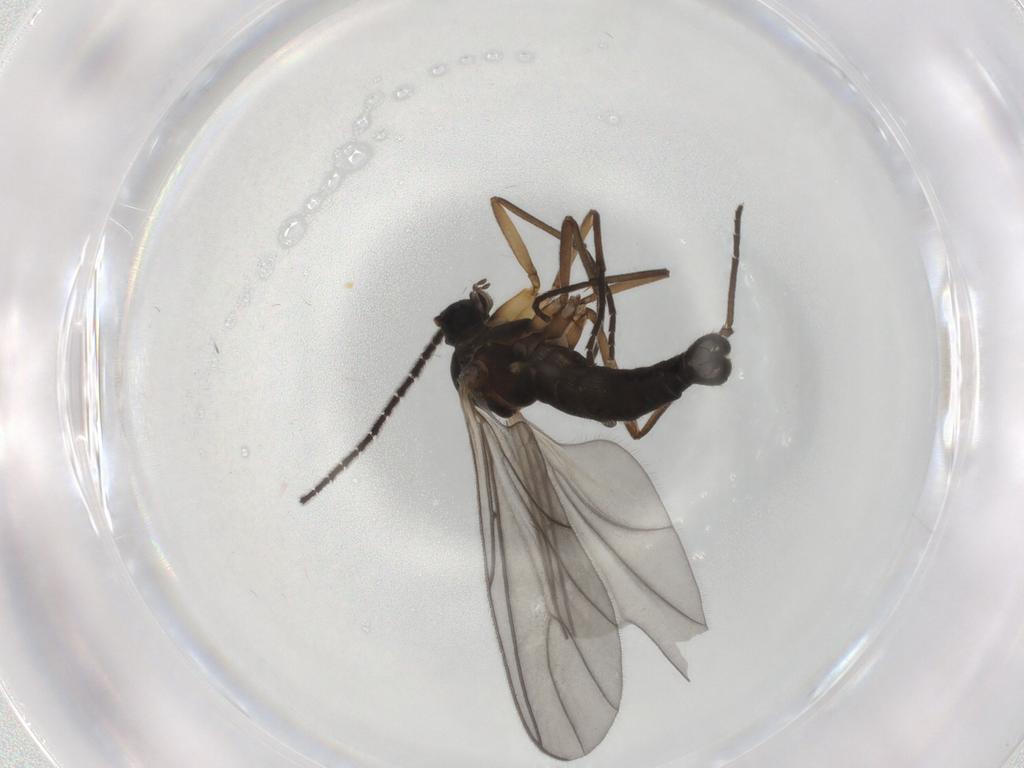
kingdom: Animalia
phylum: Arthropoda
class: Insecta
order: Diptera
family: Sciaridae
